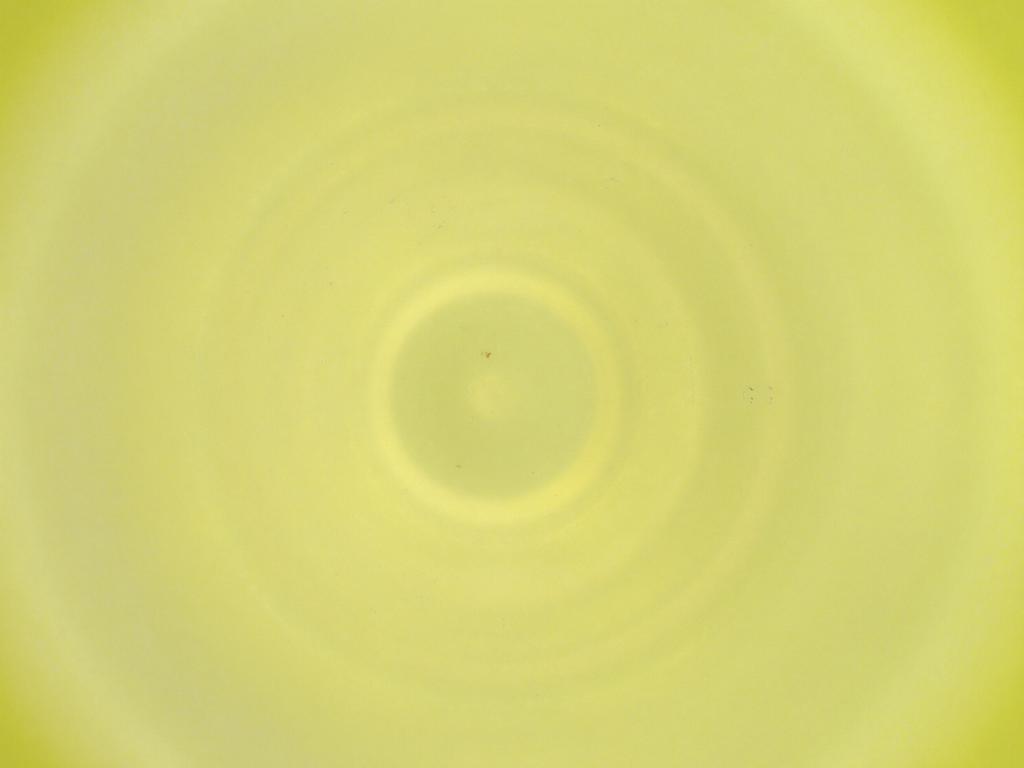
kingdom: Animalia
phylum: Arthropoda
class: Insecta
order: Diptera
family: Cecidomyiidae
